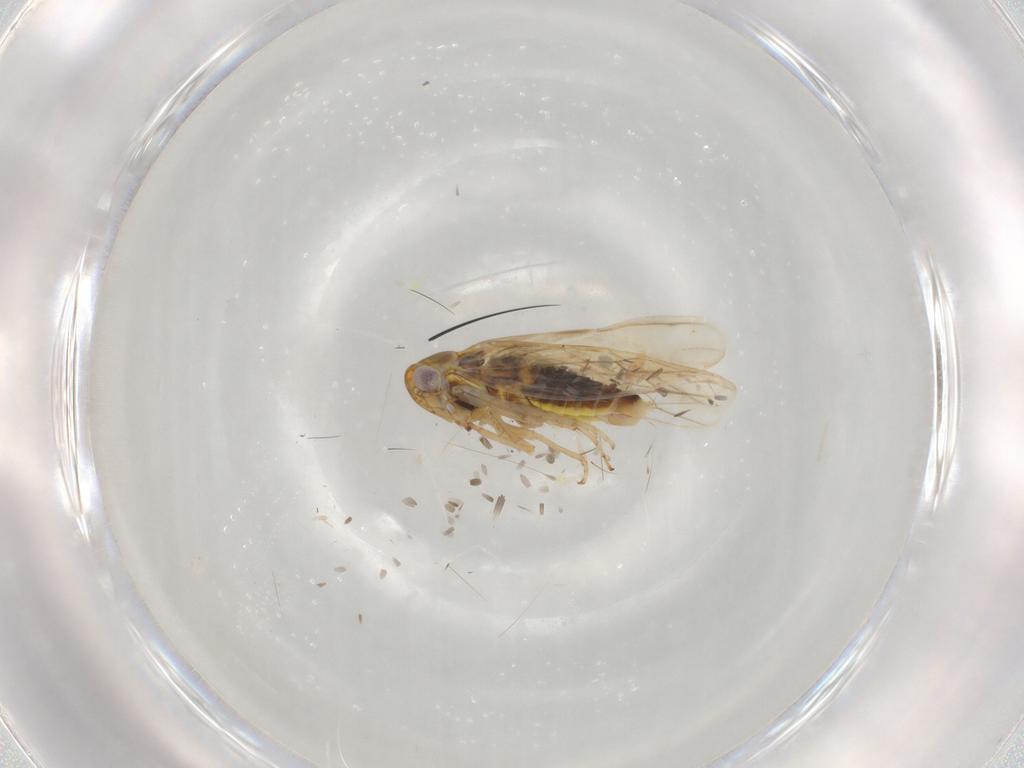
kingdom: Animalia
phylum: Arthropoda
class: Insecta
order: Hemiptera
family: Cicadellidae
